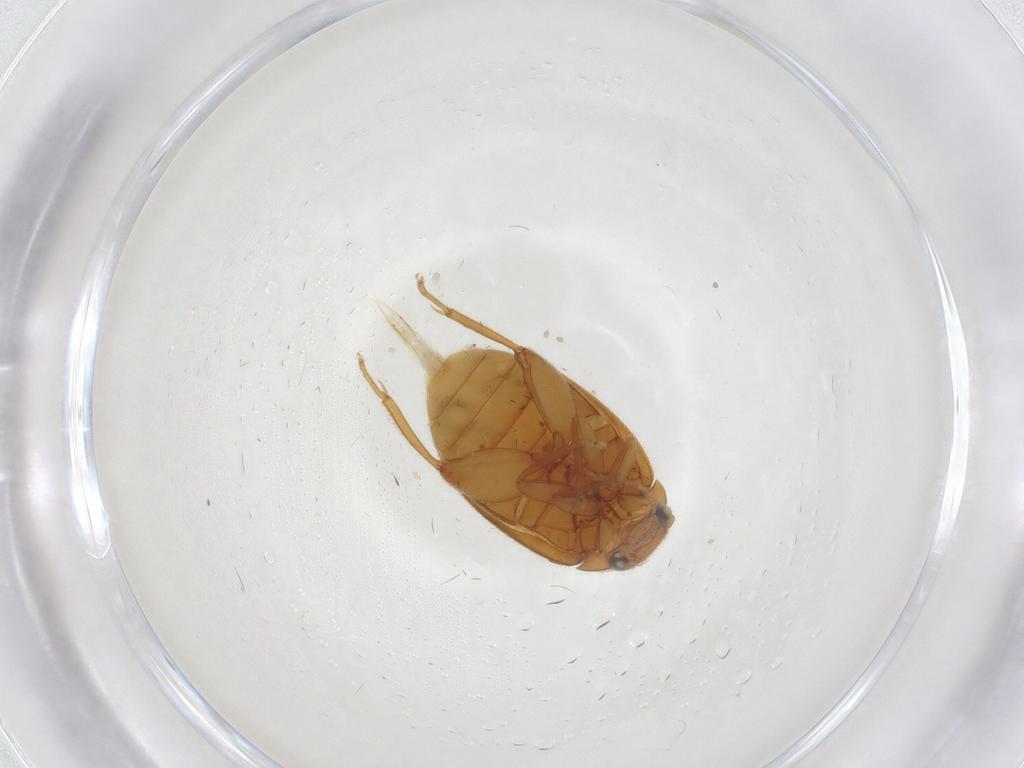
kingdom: Animalia
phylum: Arthropoda
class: Insecta
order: Coleoptera
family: Scirtidae
